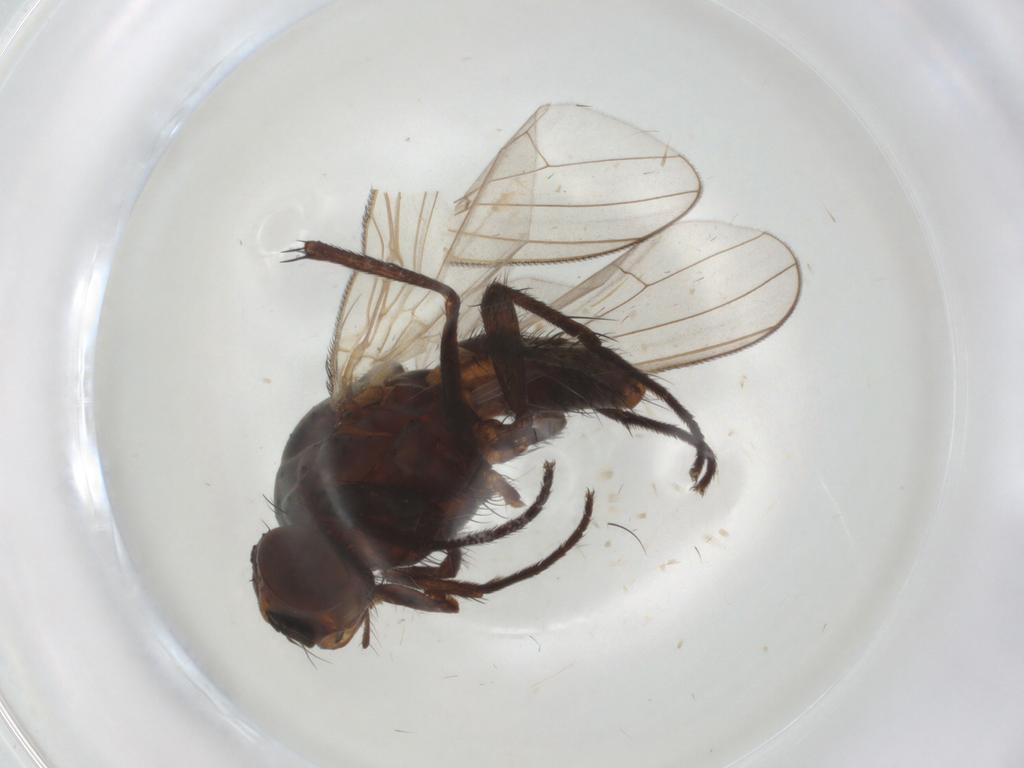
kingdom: Animalia
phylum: Arthropoda
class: Insecta
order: Diptera
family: Anthomyiidae
